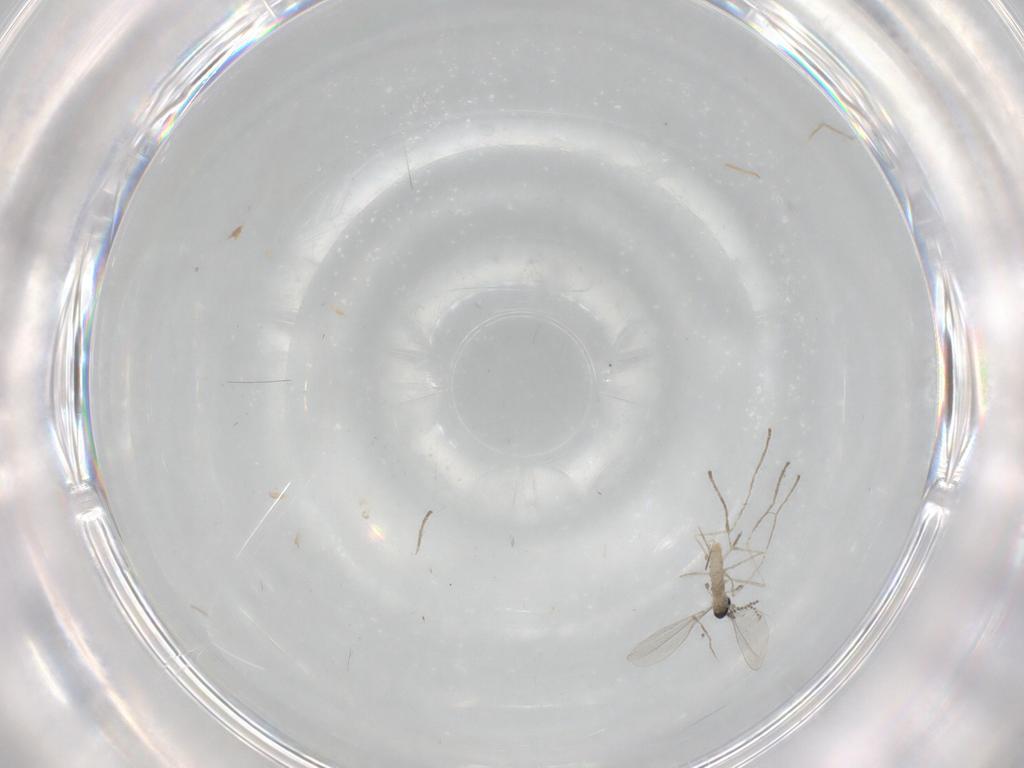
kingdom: Animalia
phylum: Arthropoda
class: Insecta
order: Diptera
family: Cecidomyiidae
